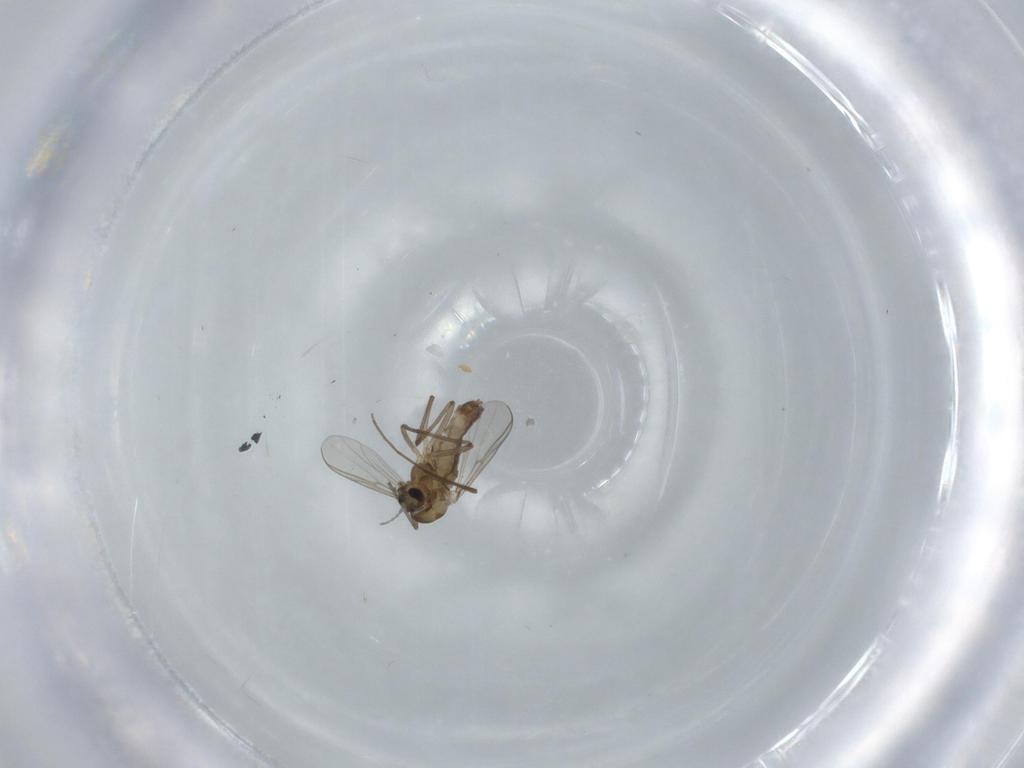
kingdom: Animalia
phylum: Arthropoda
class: Insecta
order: Diptera
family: Chironomidae
